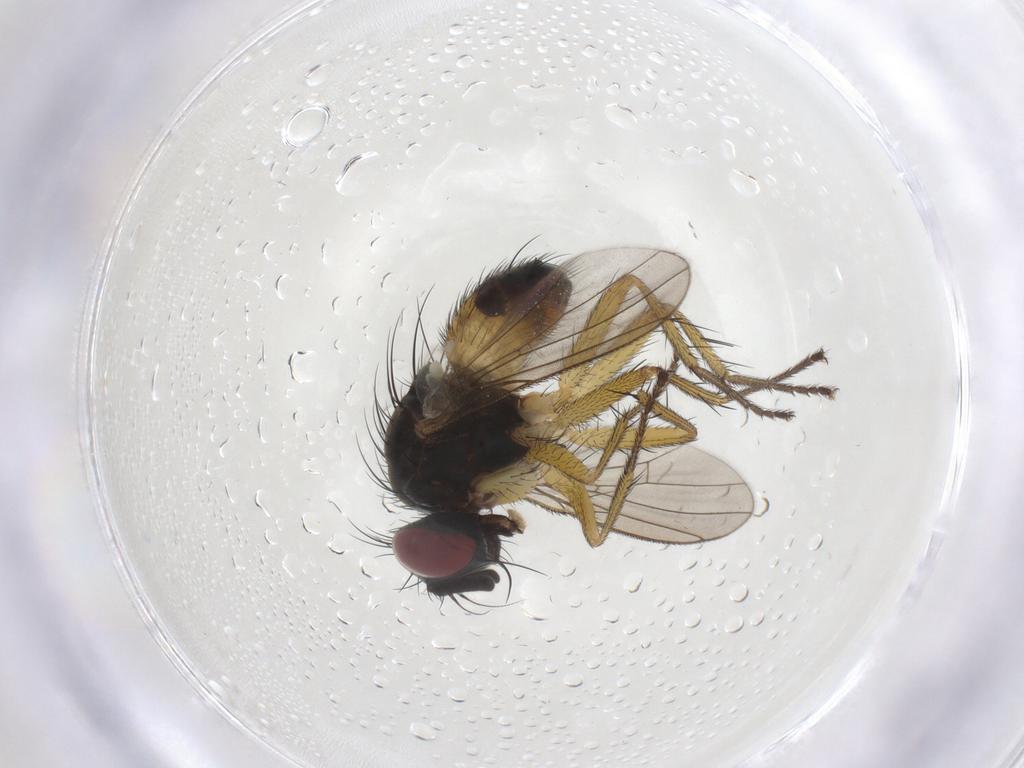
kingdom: Animalia
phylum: Arthropoda
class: Insecta
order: Diptera
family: Muscidae
